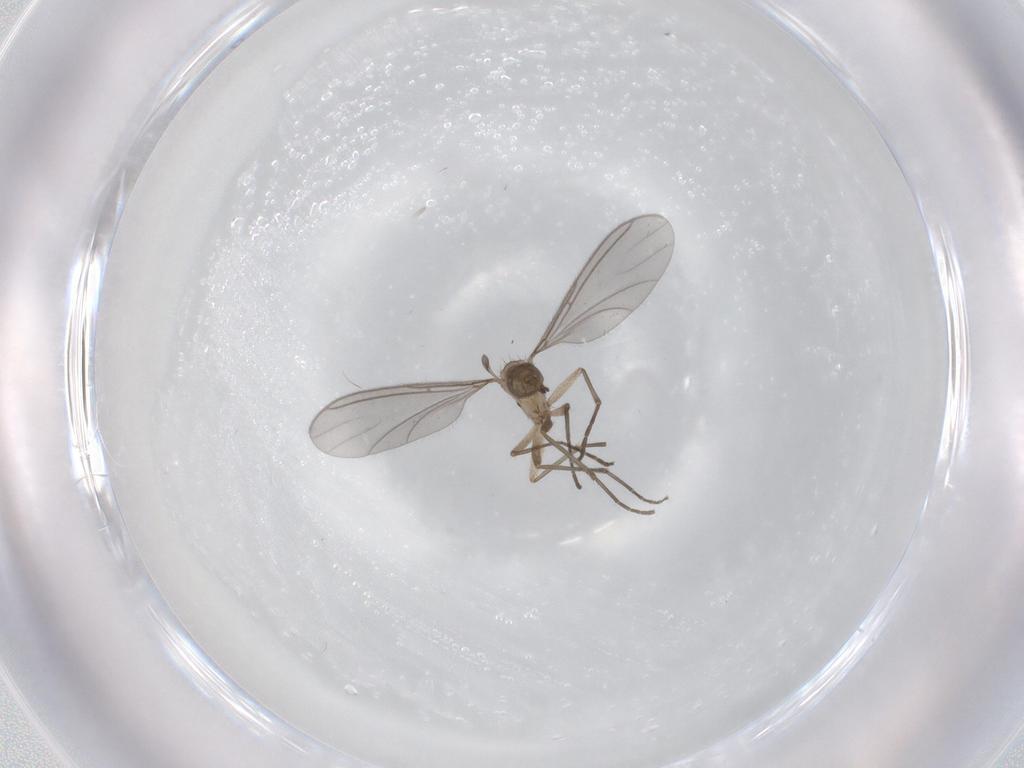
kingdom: Animalia
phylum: Arthropoda
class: Insecta
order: Diptera
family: Sciaridae
